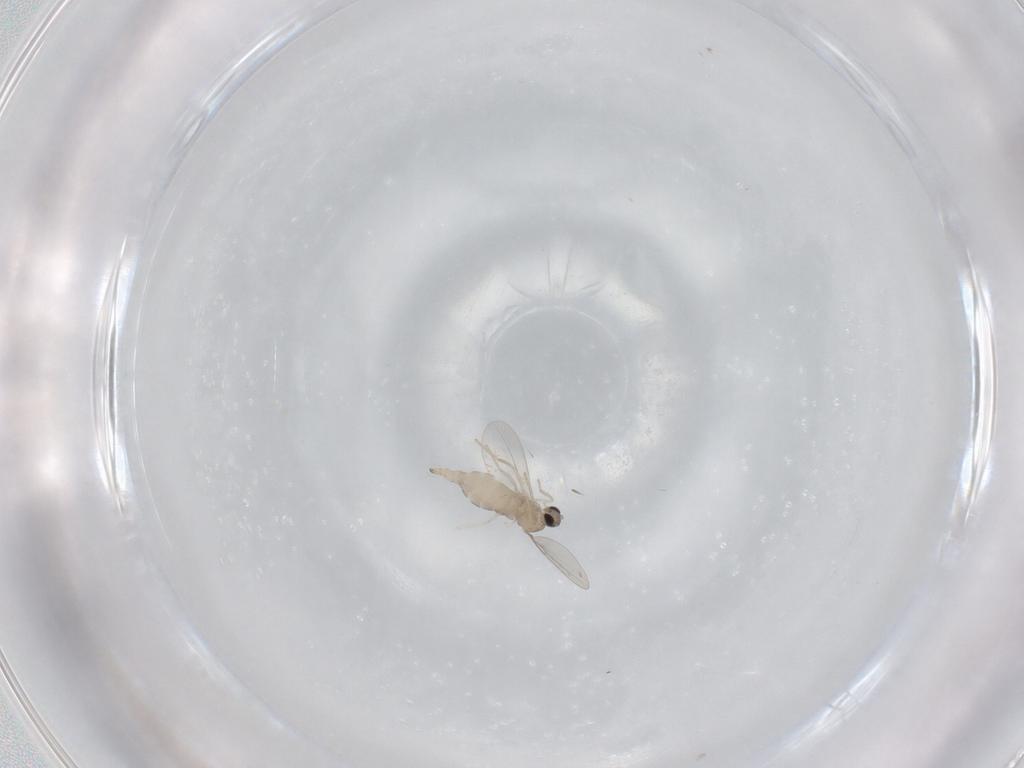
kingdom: Animalia
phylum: Arthropoda
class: Insecta
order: Diptera
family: Cecidomyiidae
